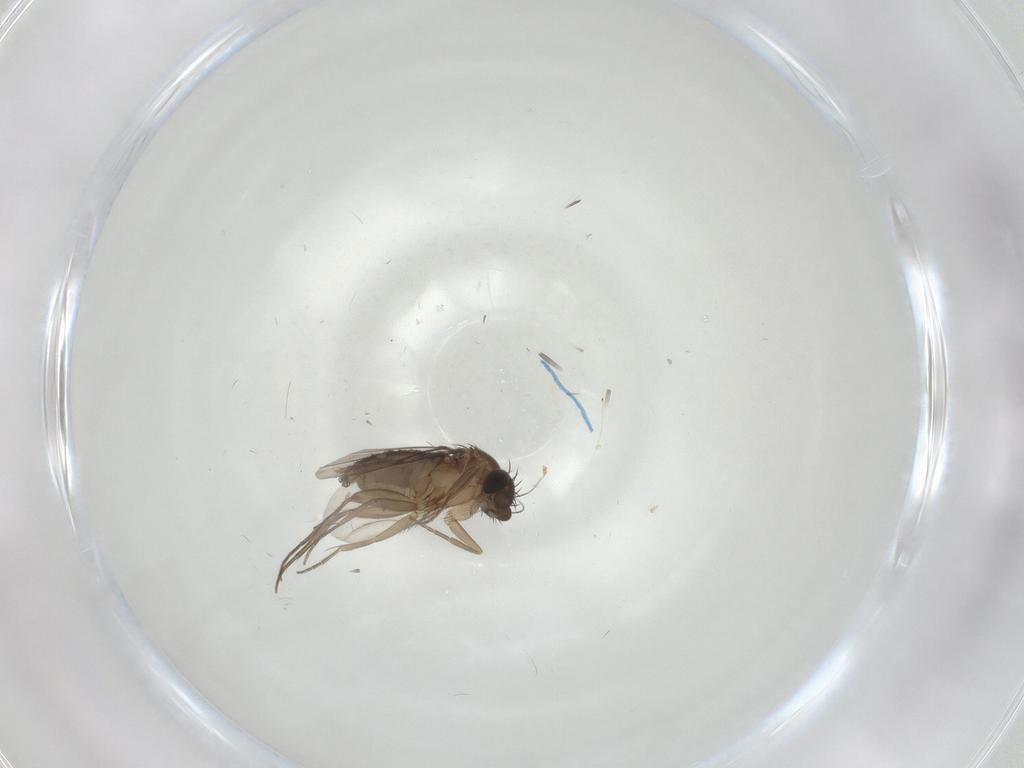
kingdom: Animalia
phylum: Arthropoda
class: Insecta
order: Diptera
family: Phoridae
